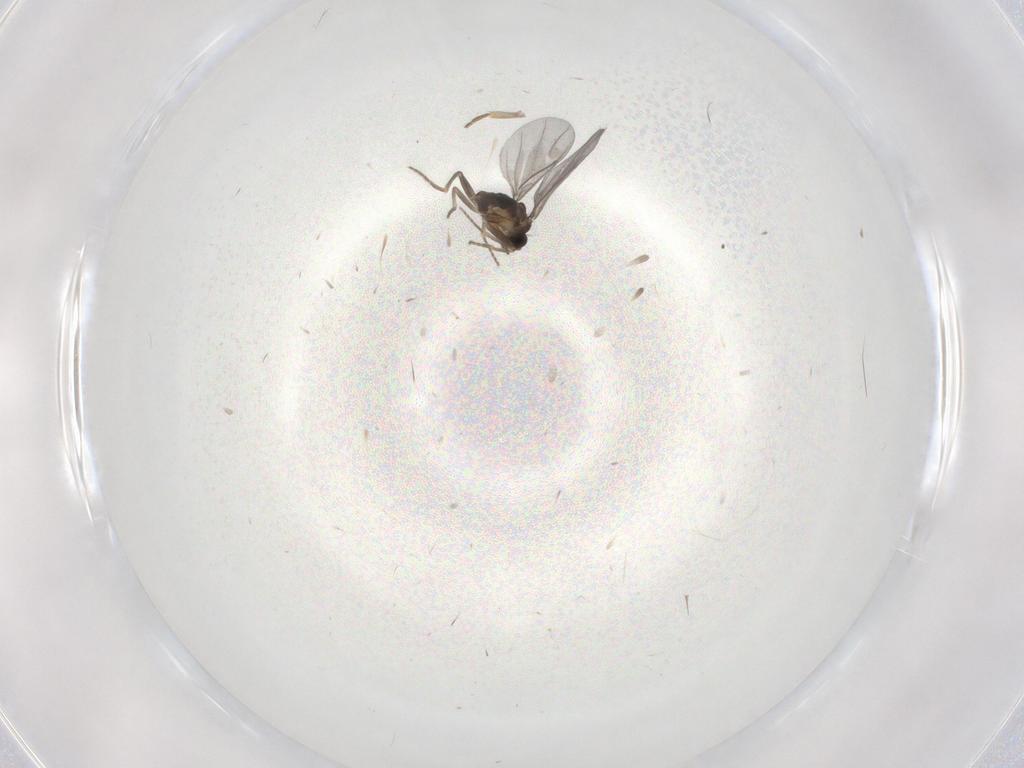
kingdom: Animalia
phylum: Arthropoda
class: Insecta
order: Diptera
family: Chironomidae
